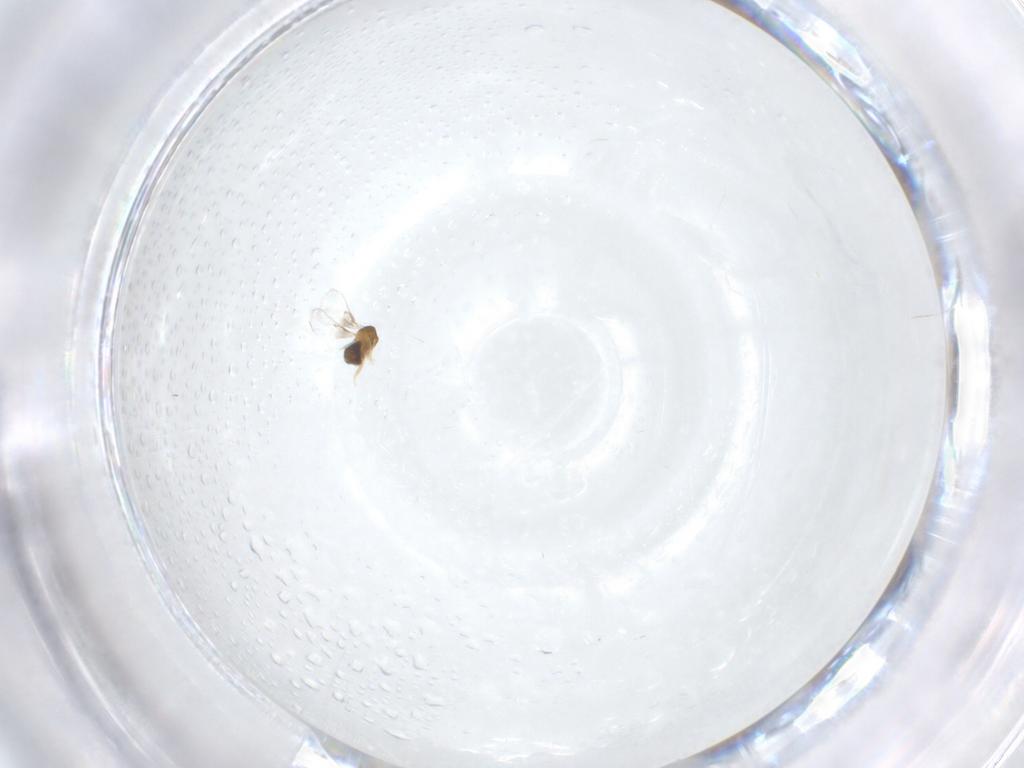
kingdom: Animalia
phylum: Arthropoda
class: Insecta
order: Hymenoptera
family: Trichogrammatidae
